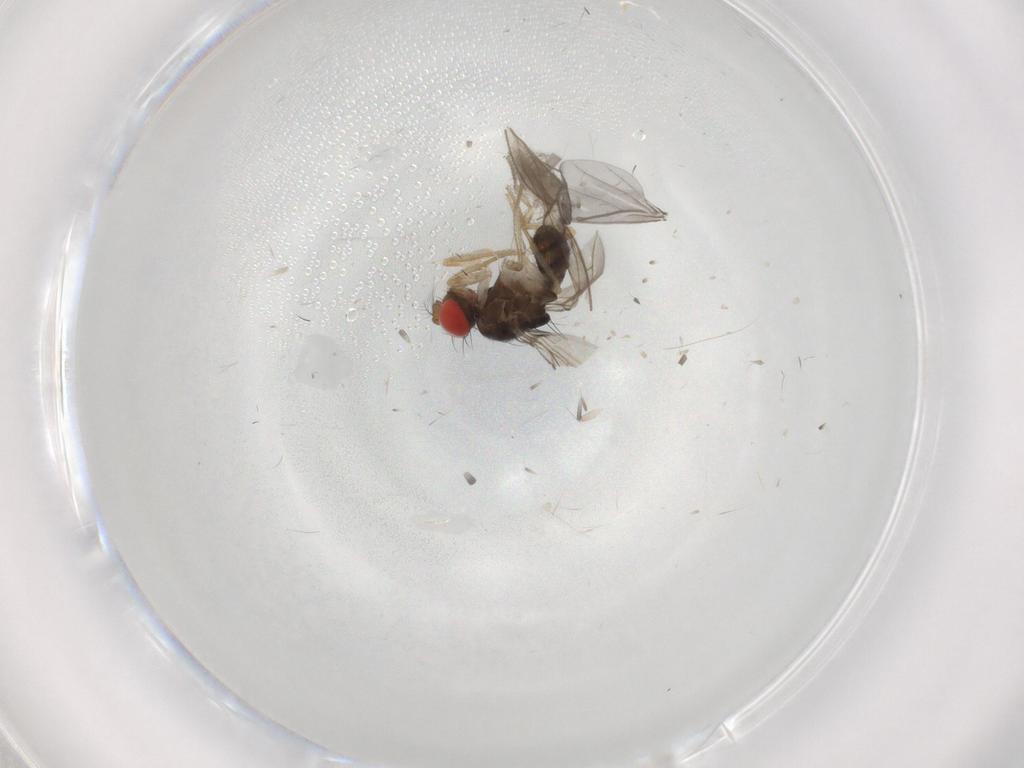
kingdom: Animalia
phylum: Arthropoda
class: Insecta
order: Diptera
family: Drosophilidae
